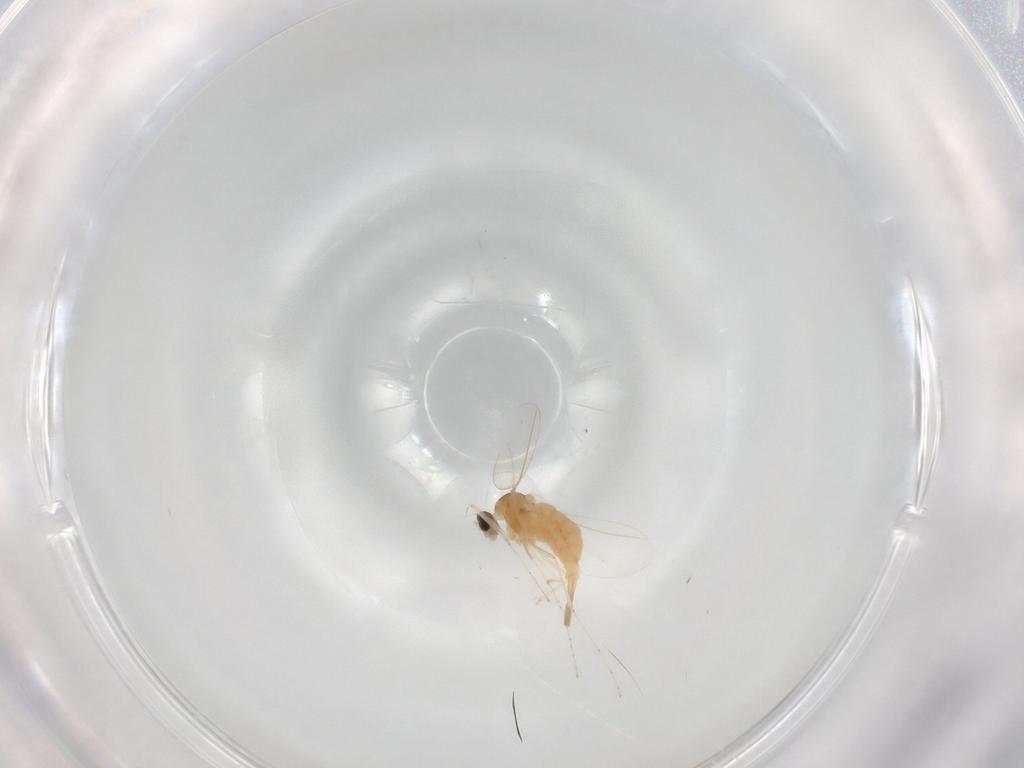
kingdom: Animalia
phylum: Arthropoda
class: Insecta
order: Diptera
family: Cecidomyiidae
